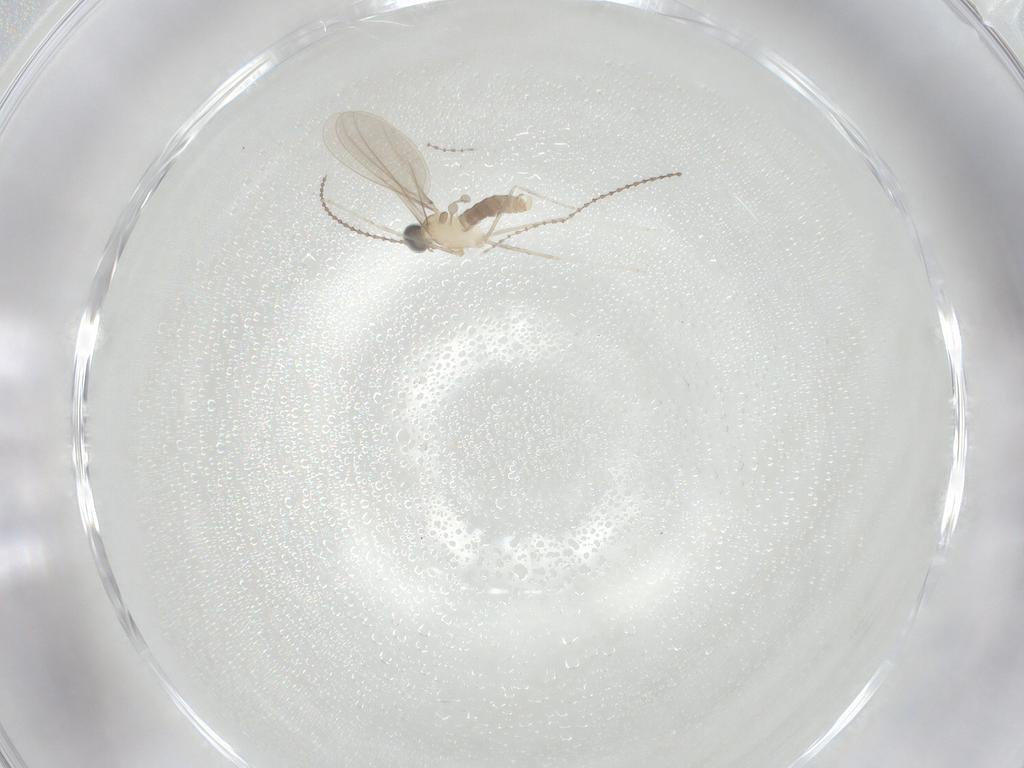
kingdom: Animalia
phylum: Arthropoda
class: Insecta
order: Diptera
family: Cecidomyiidae
